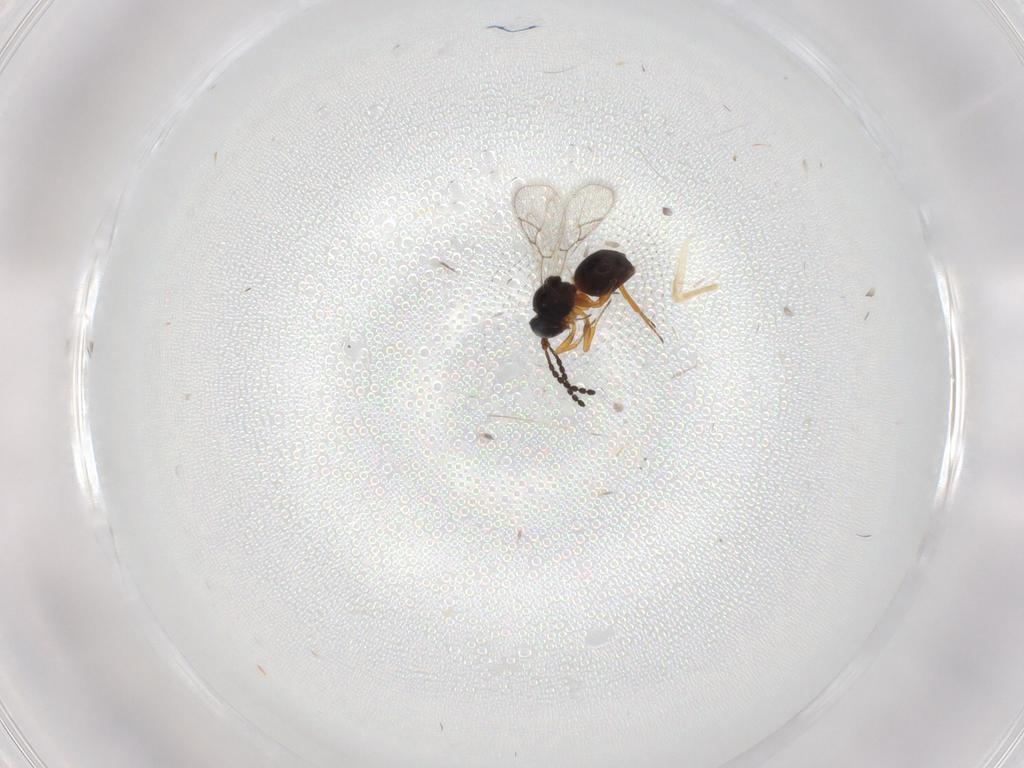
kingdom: Animalia
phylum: Arthropoda
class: Insecta
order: Hymenoptera
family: Figitidae
